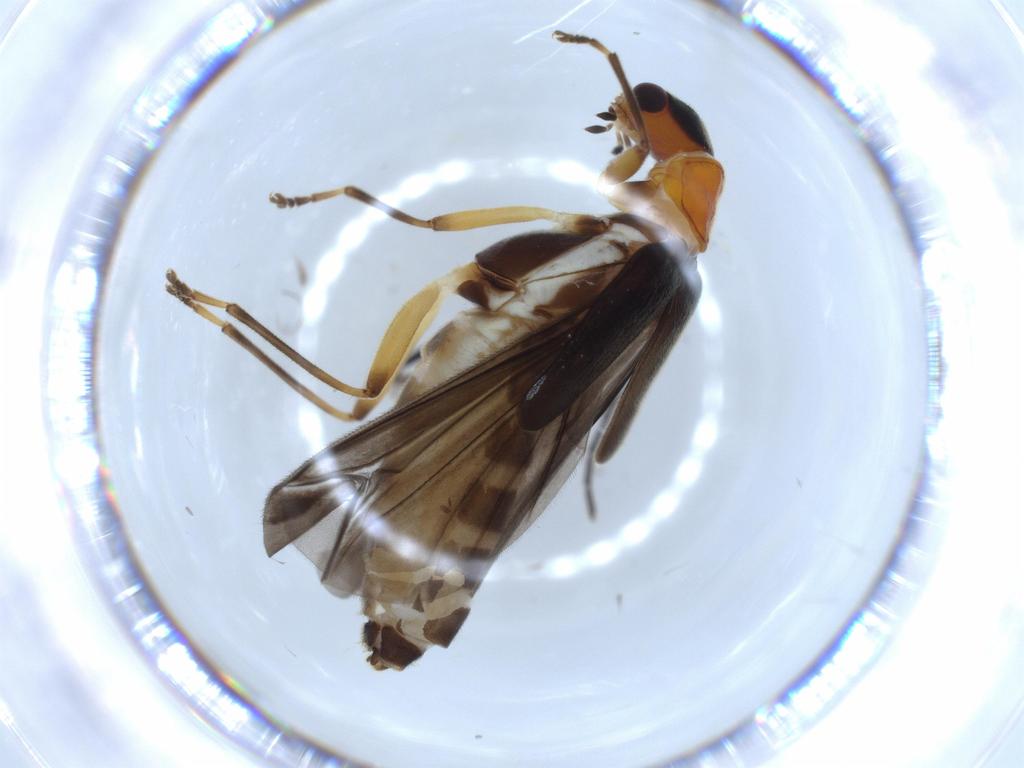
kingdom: Animalia
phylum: Arthropoda
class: Insecta
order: Coleoptera
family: Cantharidae
